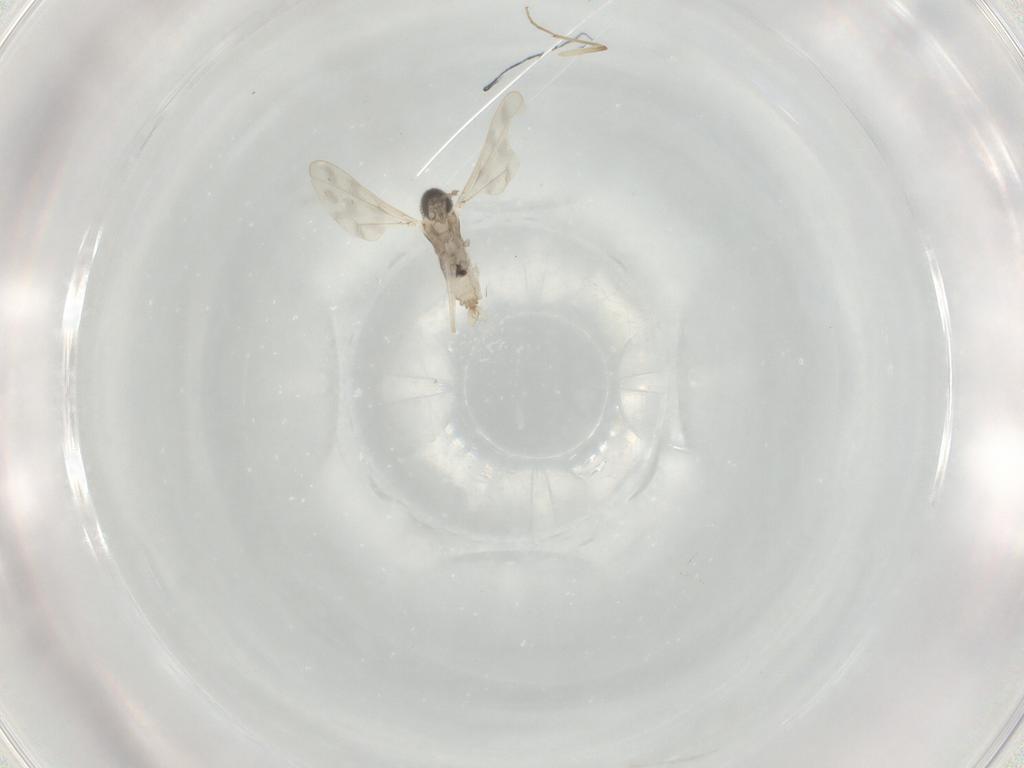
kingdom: Animalia
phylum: Arthropoda
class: Insecta
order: Diptera
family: Cecidomyiidae
